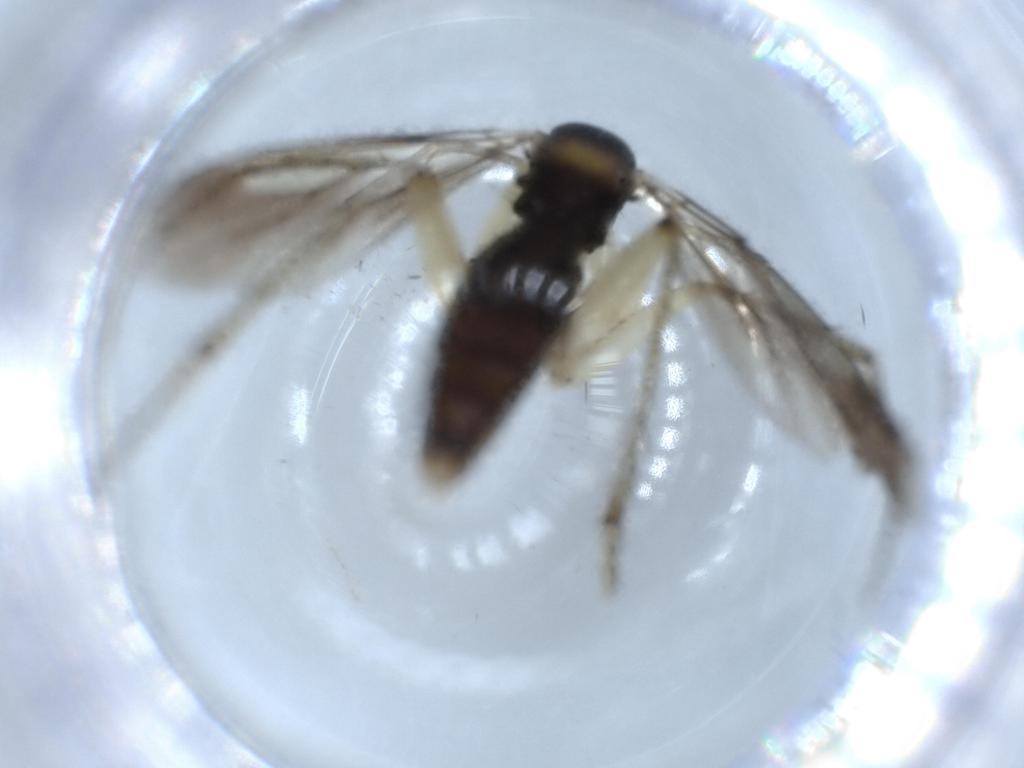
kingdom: Animalia
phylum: Arthropoda
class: Insecta
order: Diptera
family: Mycetophilidae
